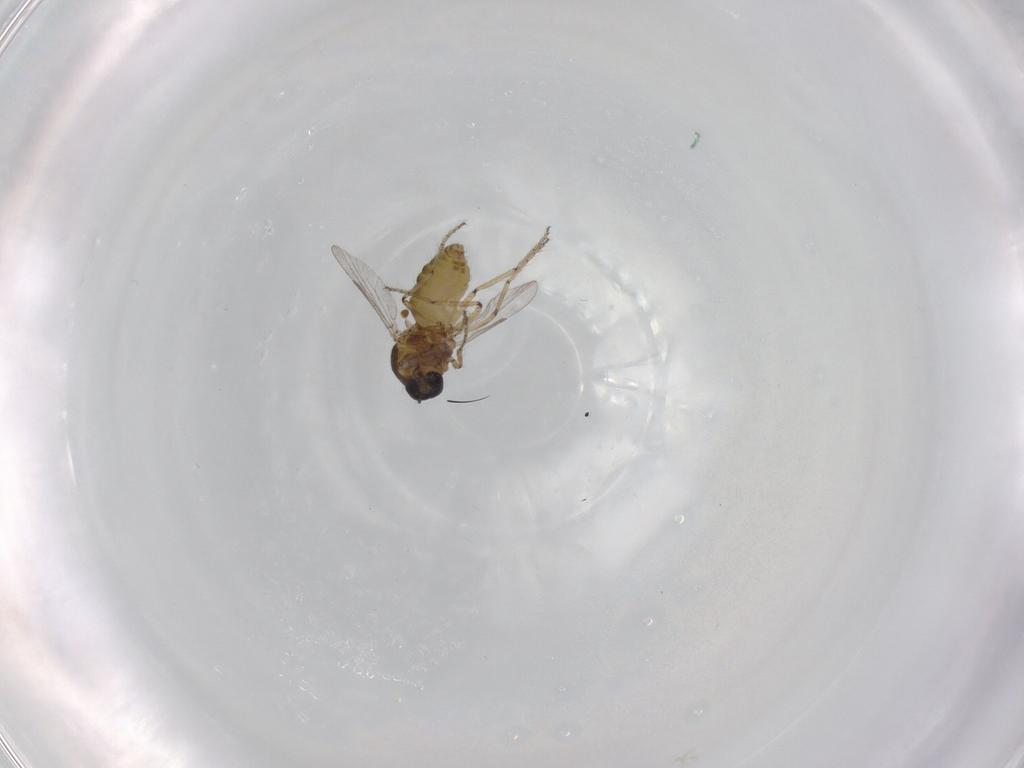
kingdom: Animalia
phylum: Arthropoda
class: Insecta
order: Diptera
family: Ceratopogonidae
